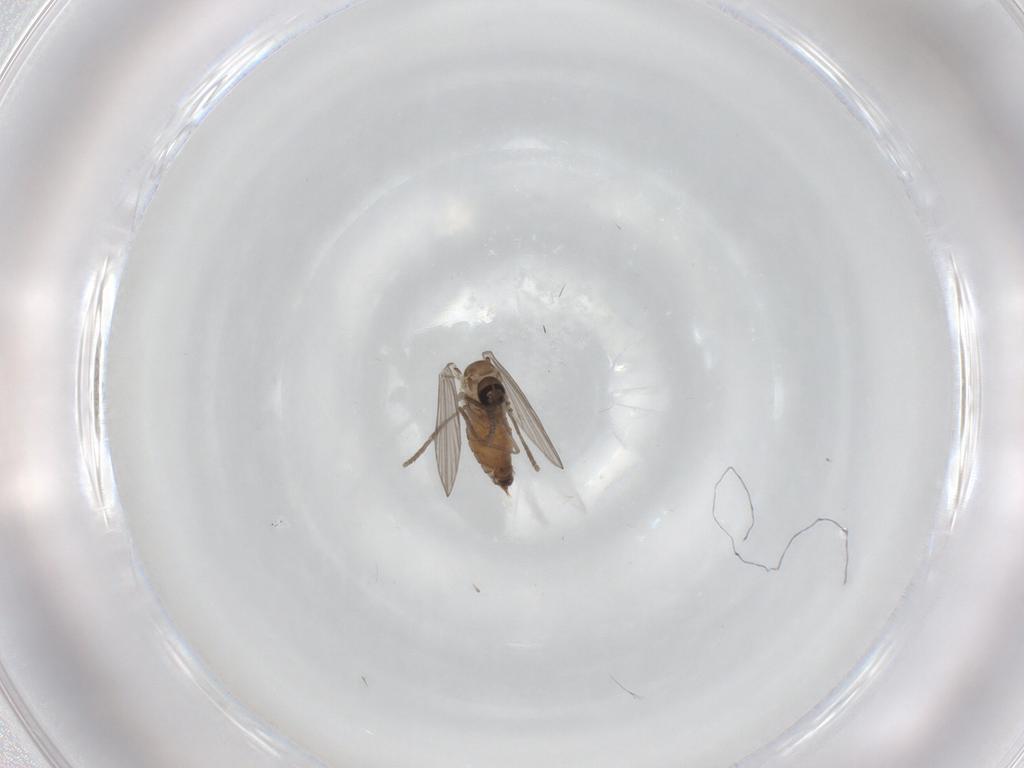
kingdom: Animalia
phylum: Arthropoda
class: Insecta
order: Diptera
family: Psychodidae
